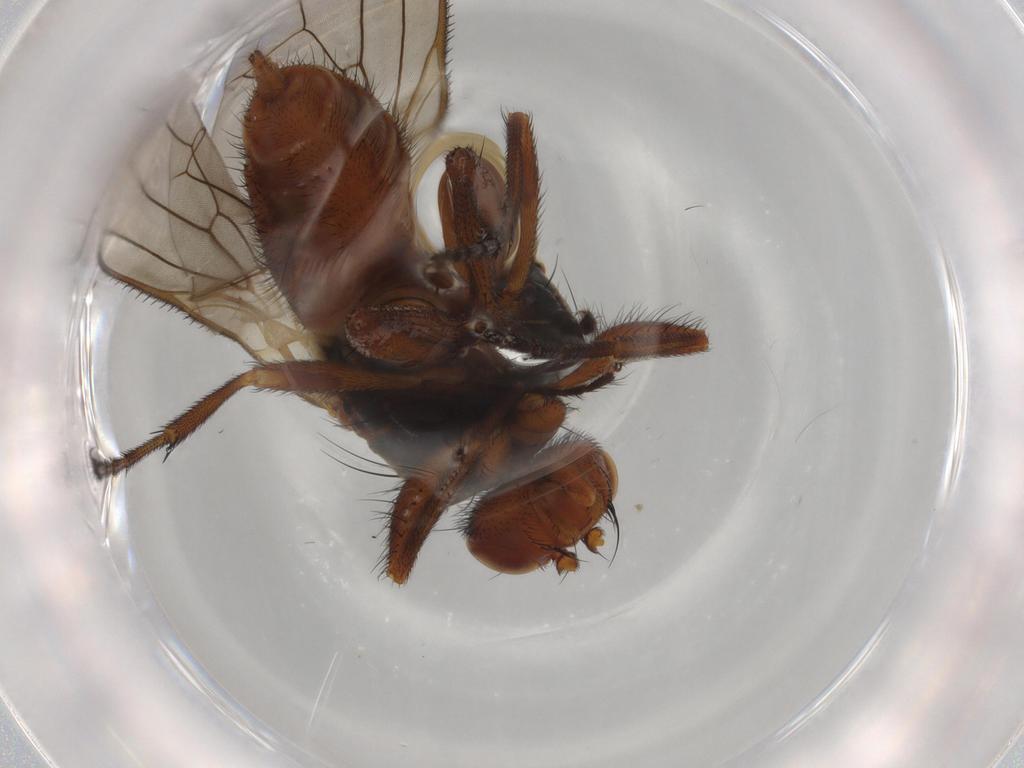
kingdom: Animalia
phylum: Arthropoda
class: Insecta
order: Diptera
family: Heleomyzidae
